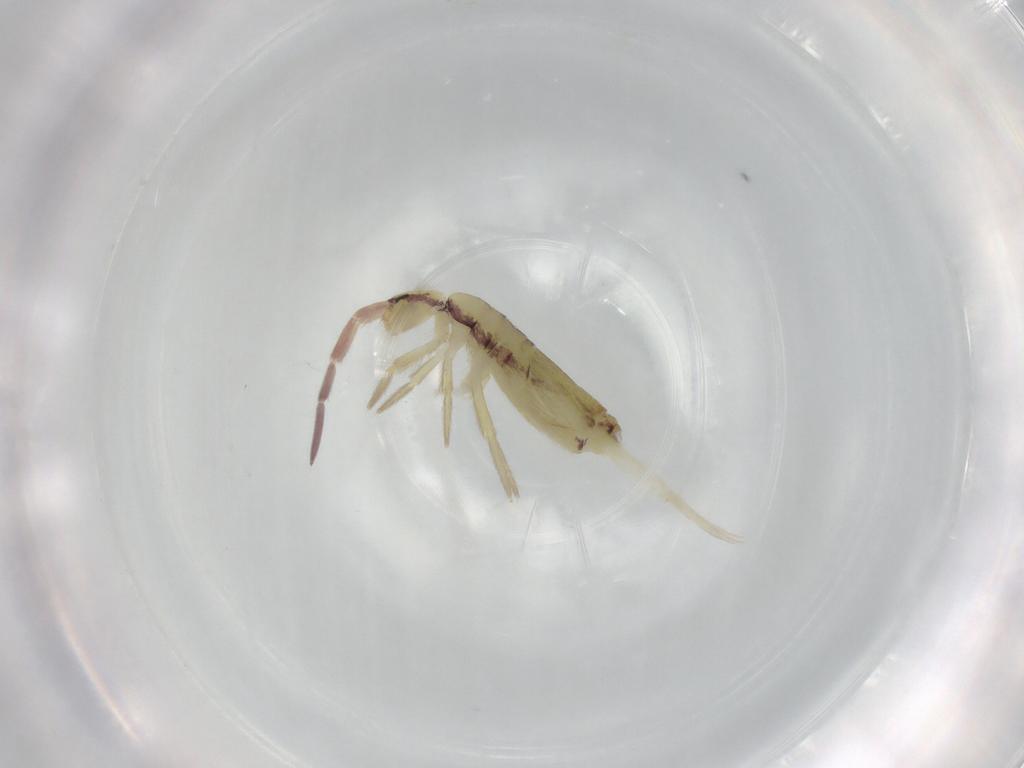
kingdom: Animalia
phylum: Arthropoda
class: Collembola
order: Entomobryomorpha
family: Entomobryidae
